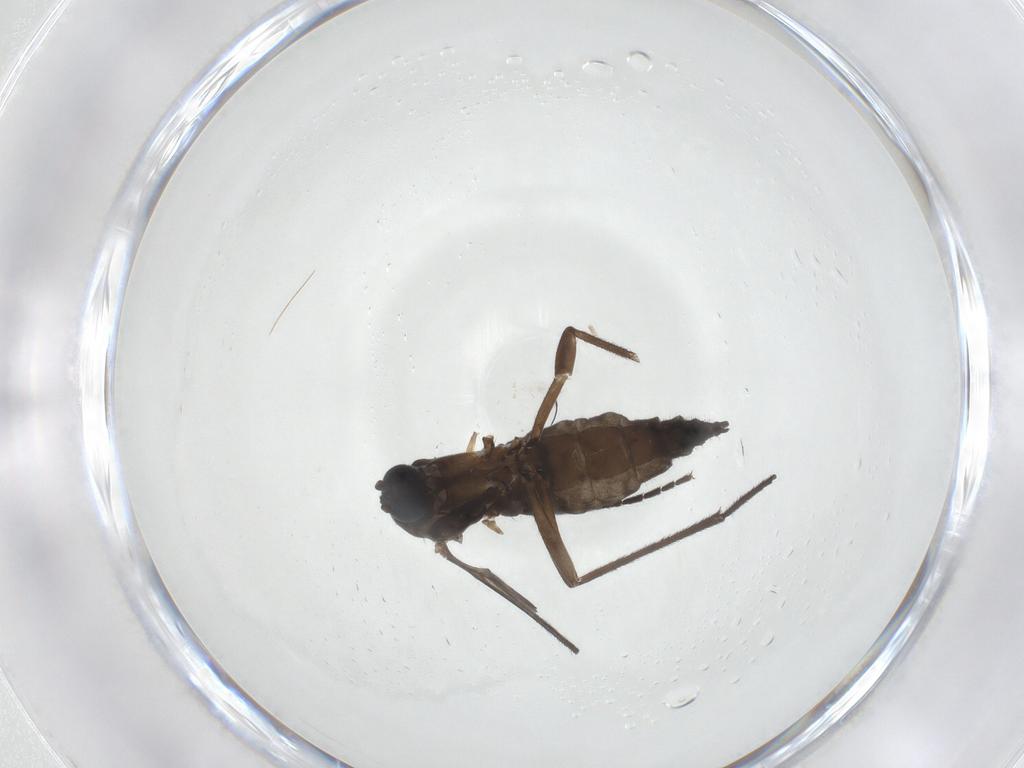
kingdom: Animalia
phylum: Arthropoda
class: Insecta
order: Diptera
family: Sciaridae
